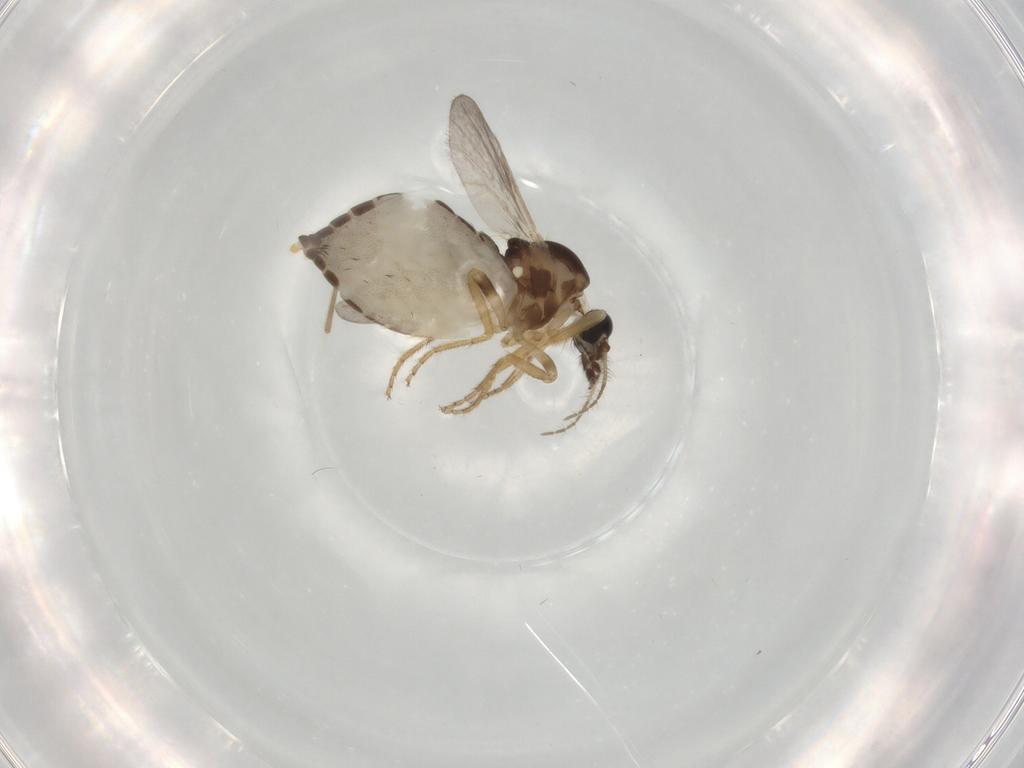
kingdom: Animalia
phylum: Arthropoda
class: Insecta
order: Diptera
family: Ceratopogonidae
